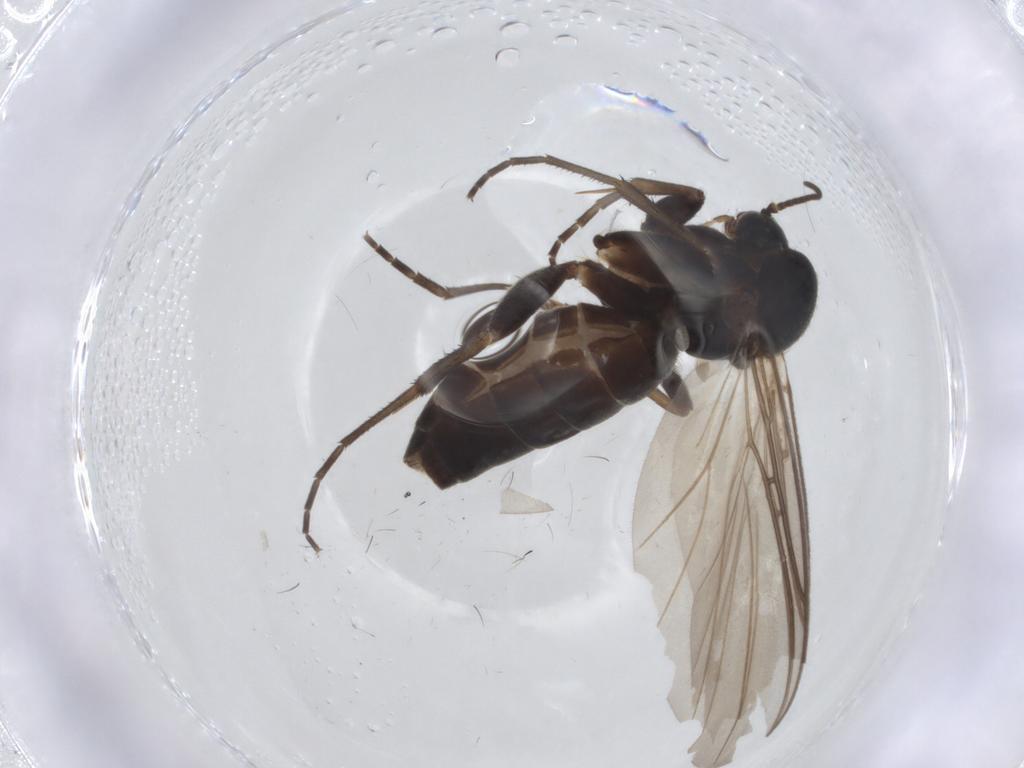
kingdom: Animalia
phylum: Arthropoda
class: Insecta
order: Diptera
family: Mycetophilidae
